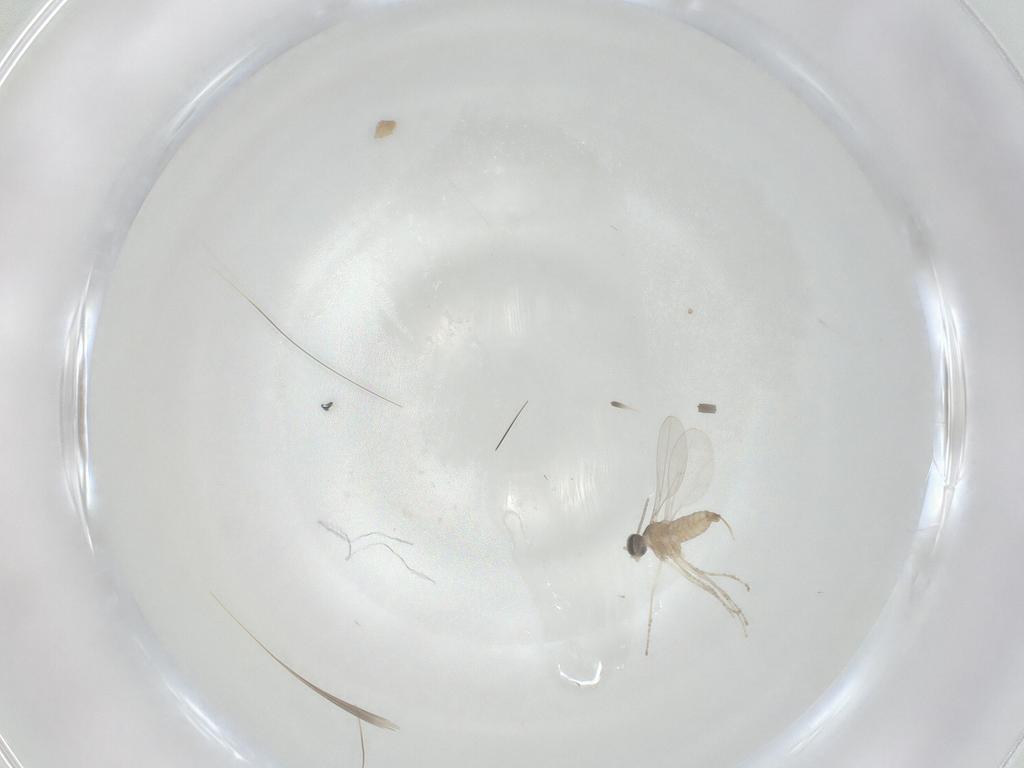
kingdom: Animalia
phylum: Arthropoda
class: Insecta
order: Diptera
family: Cecidomyiidae
